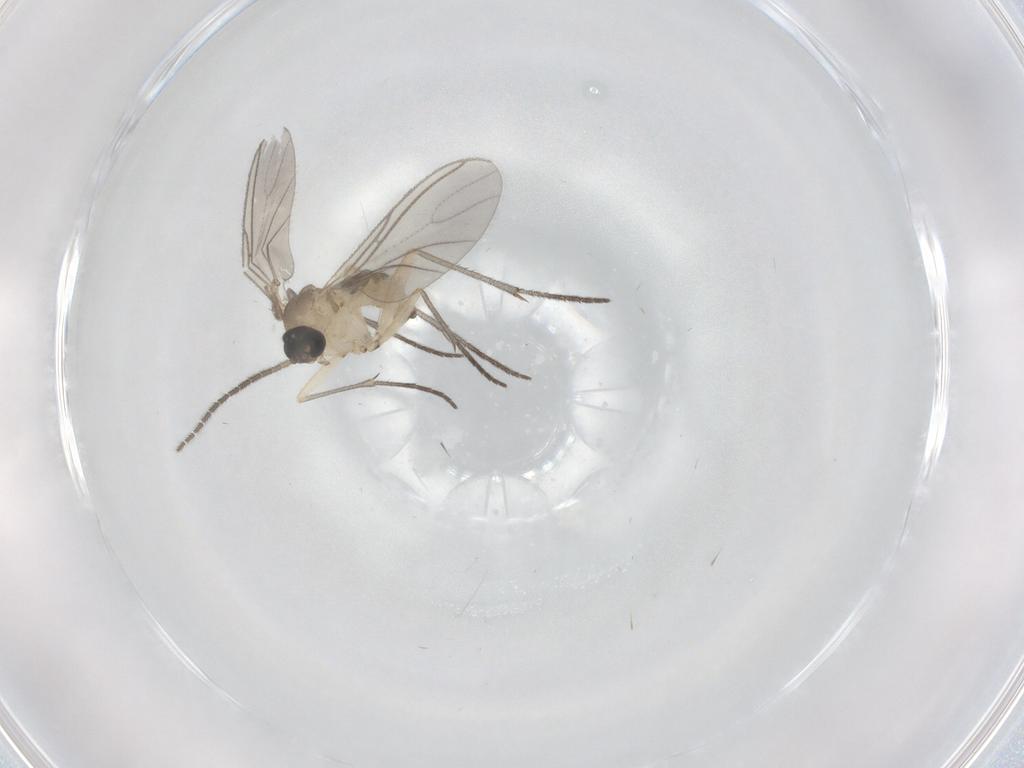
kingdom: Animalia
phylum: Arthropoda
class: Insecta
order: Diptera
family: Sciaridae
